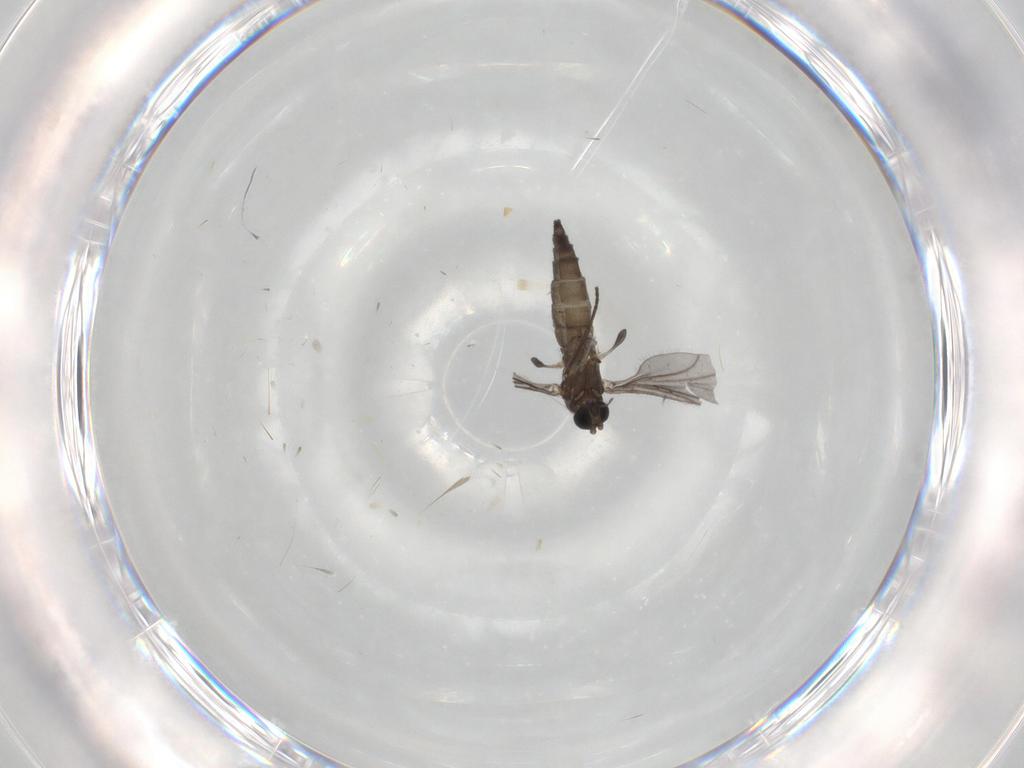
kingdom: Animalia
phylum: Arthropoda
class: Insecta
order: Diptera
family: Sciaridae
